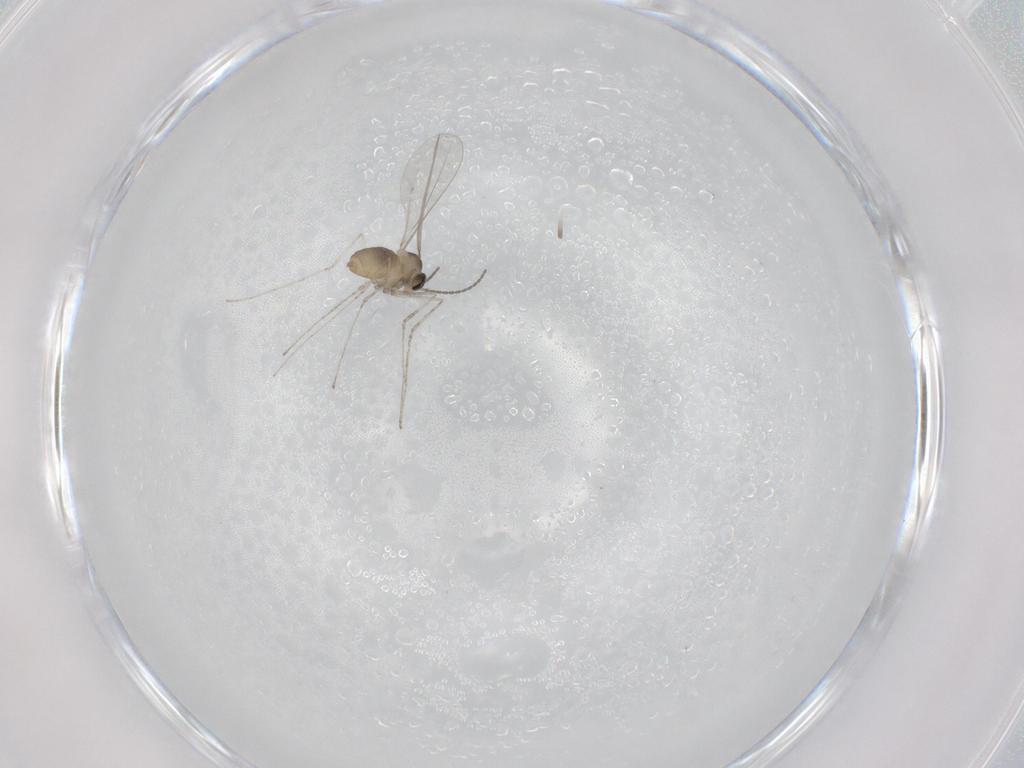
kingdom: Animalia
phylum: Arthropoda
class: Insecta
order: Diptera
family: Cecidomyiidae
